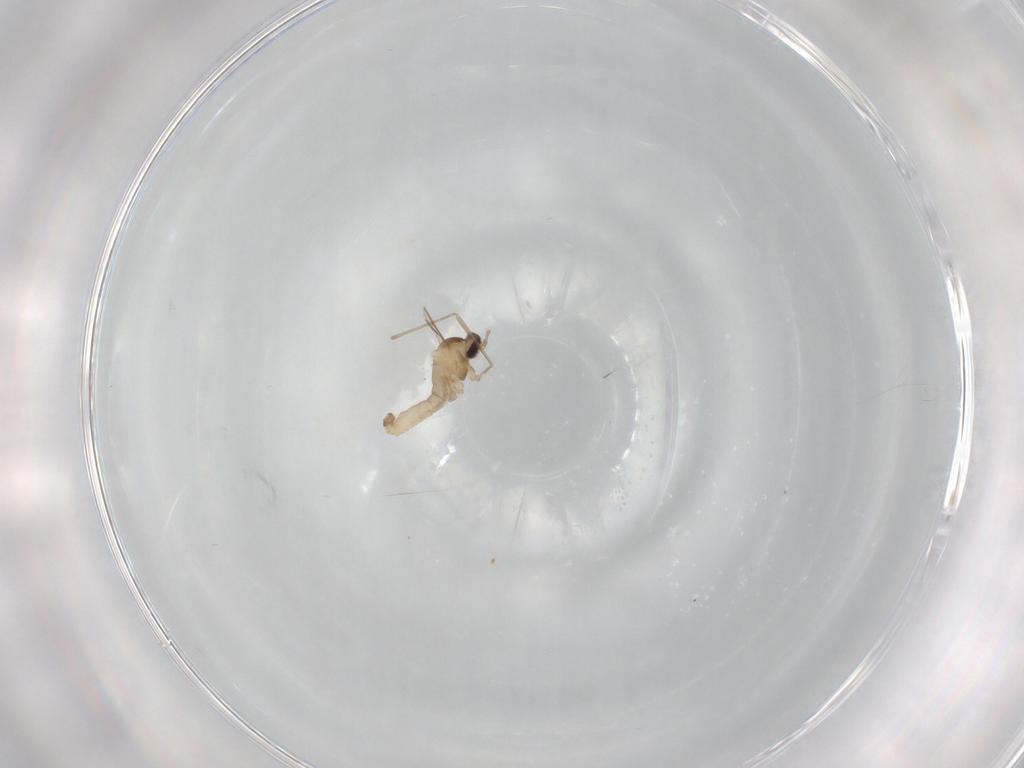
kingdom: Animalia
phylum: Arthropoda
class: Insecta
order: Diptera
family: Cecidomyiidae
